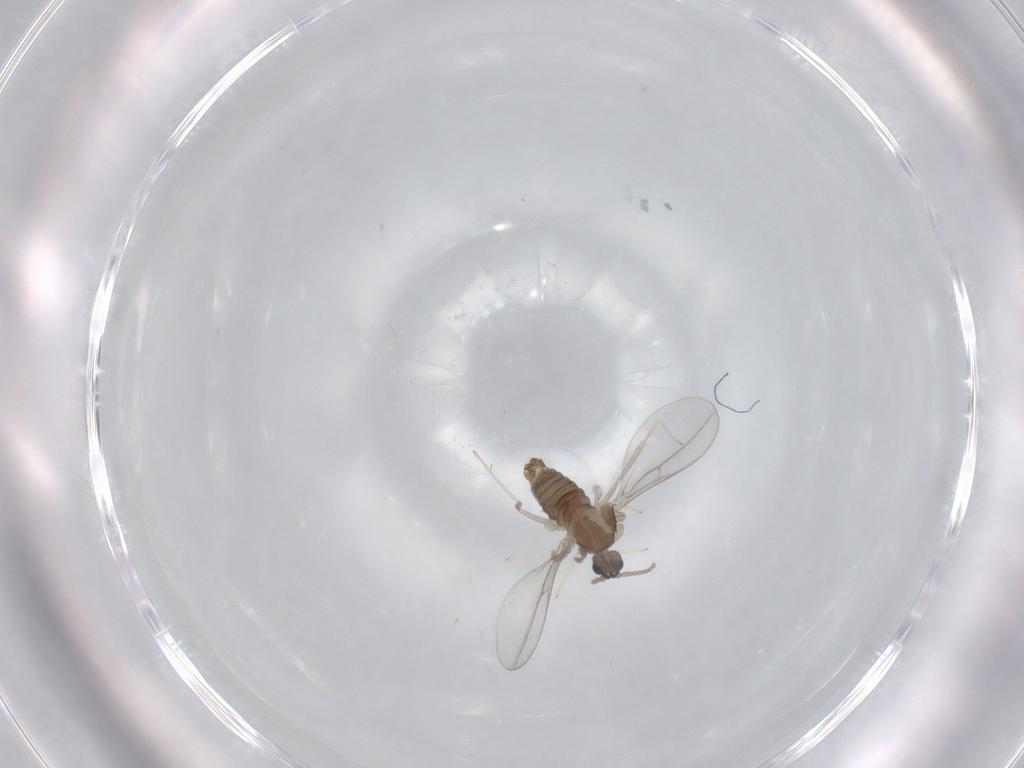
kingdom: Animalia
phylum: Arthropoda
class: Insecta
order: Diptera
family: Cecidomyiidae
